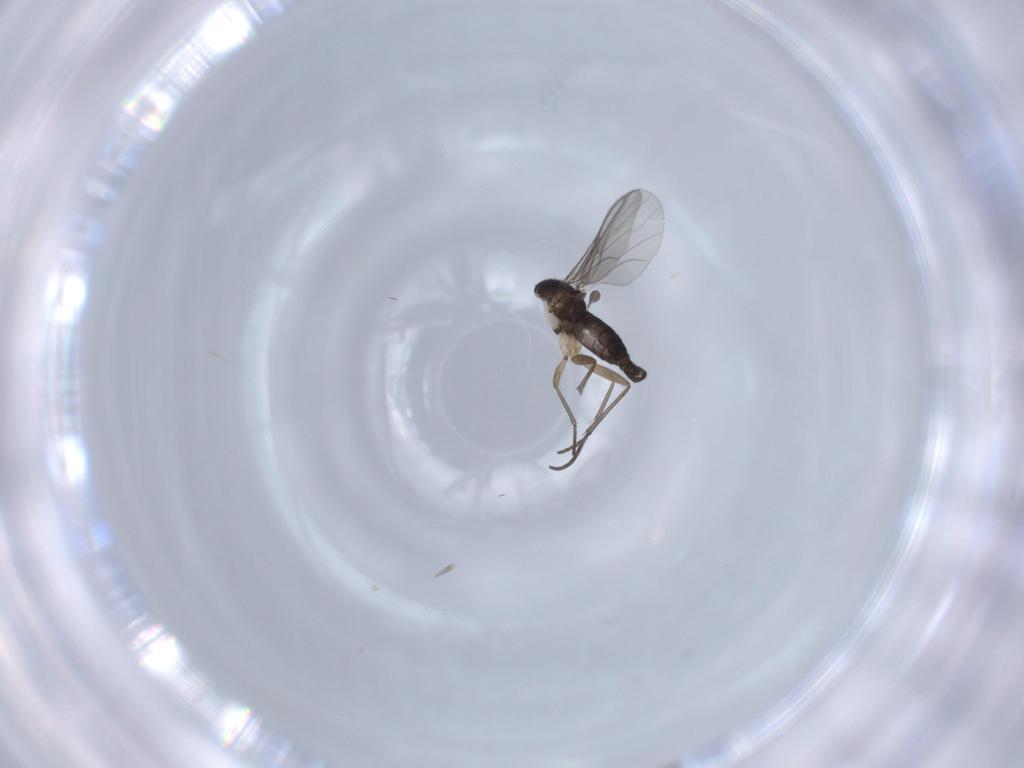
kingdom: Animalia
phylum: Arthropoda
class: Insecta
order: Diptera
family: Sciaridae
